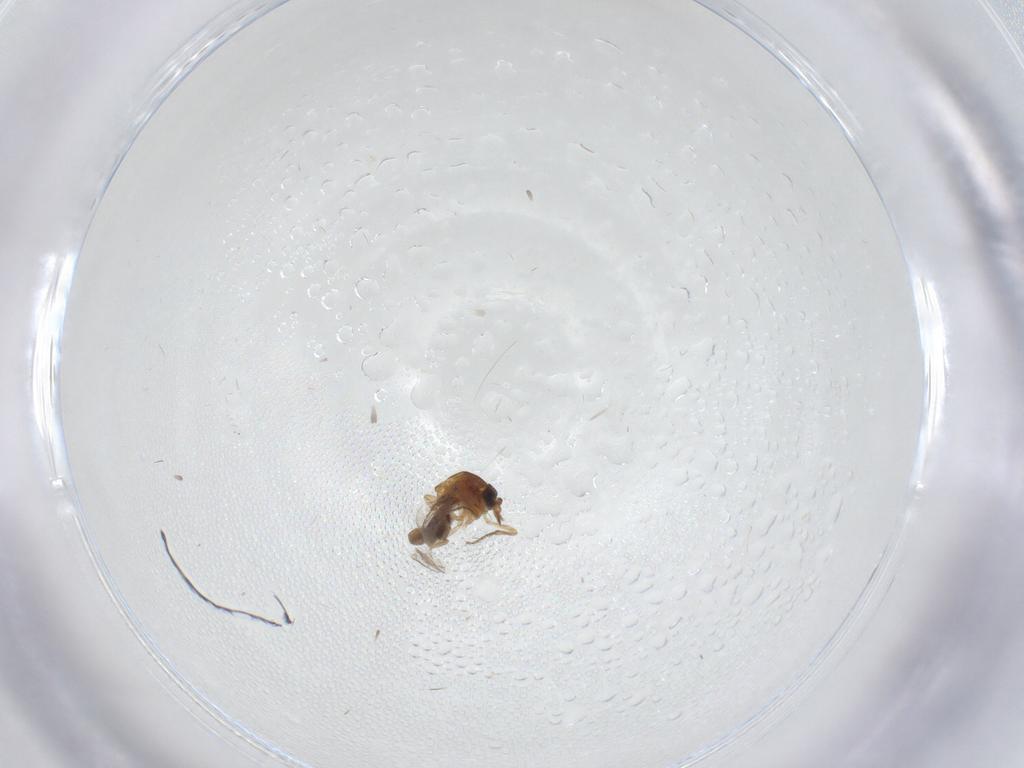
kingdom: Animalia
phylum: Arthropoda
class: Insecta
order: Diptera
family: Ceratopogonidae
